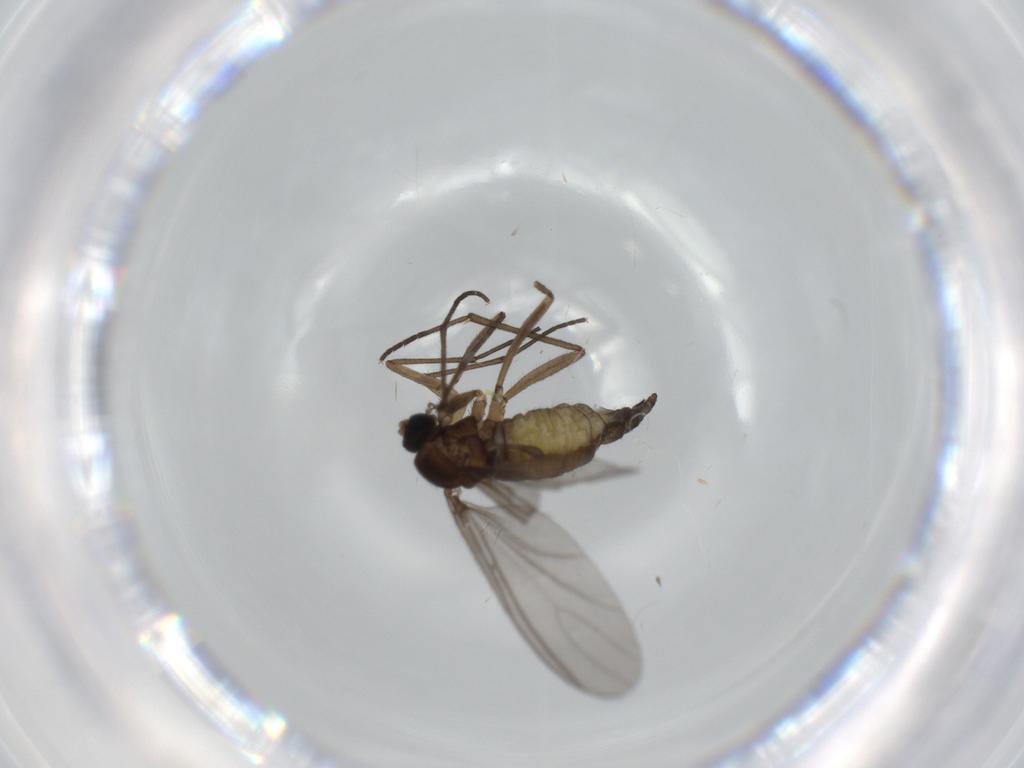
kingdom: Animalia
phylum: Arthropoda
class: Insecta
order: Diptera
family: Sciaridae
